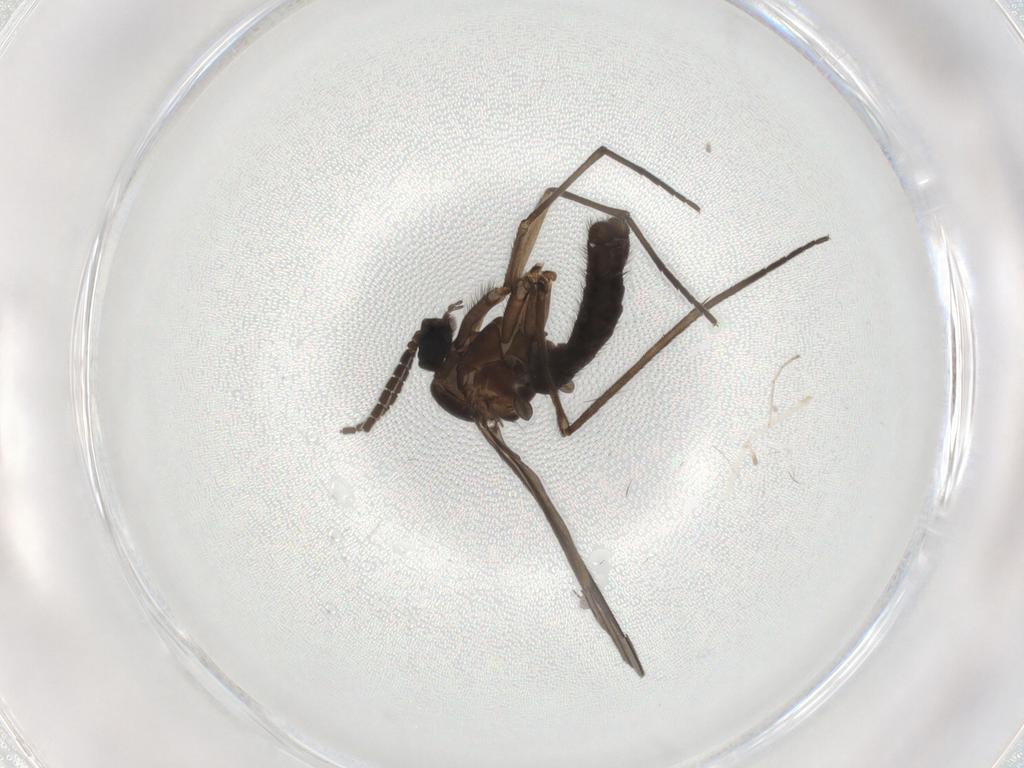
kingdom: Animalia
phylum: Arthropoda
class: Insecta
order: Diptera
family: Sciaridae
